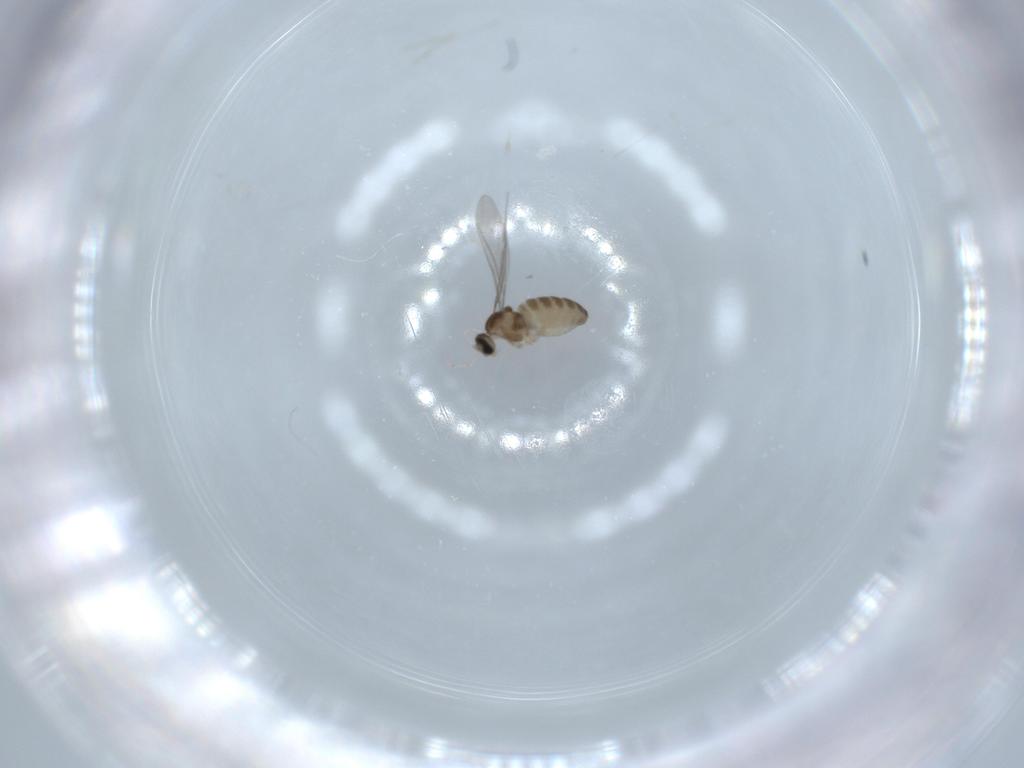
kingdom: Animalia
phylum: Arthropoda
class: Insecta
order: Diptera
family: Cecidomyiidae
